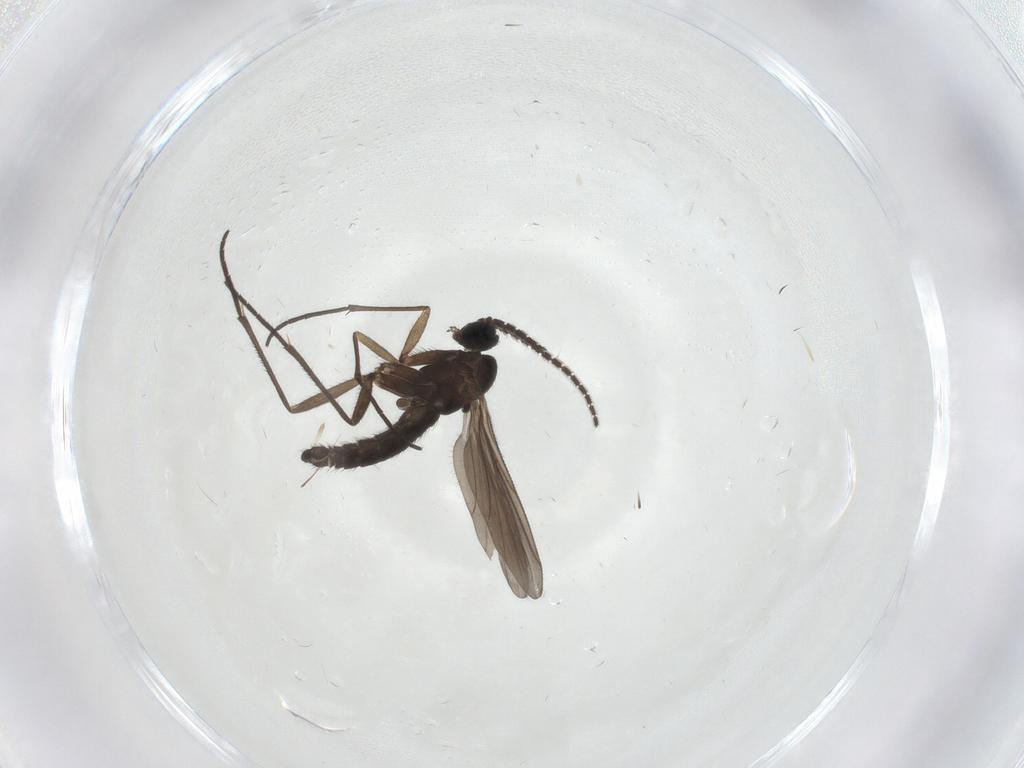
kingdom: Animalia
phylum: Arthropoda
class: Insecta
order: Diptera
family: Sciaridae
